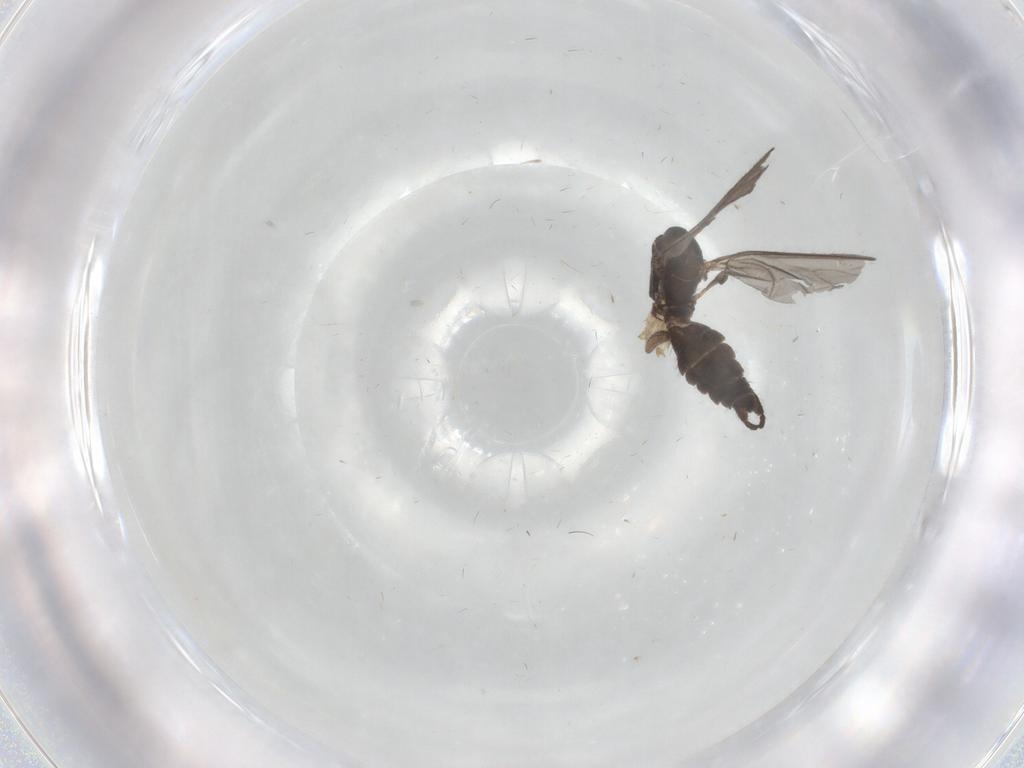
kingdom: Animalia
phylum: Arthropoda
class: Insecta
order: Diptera
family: Sciaridae
